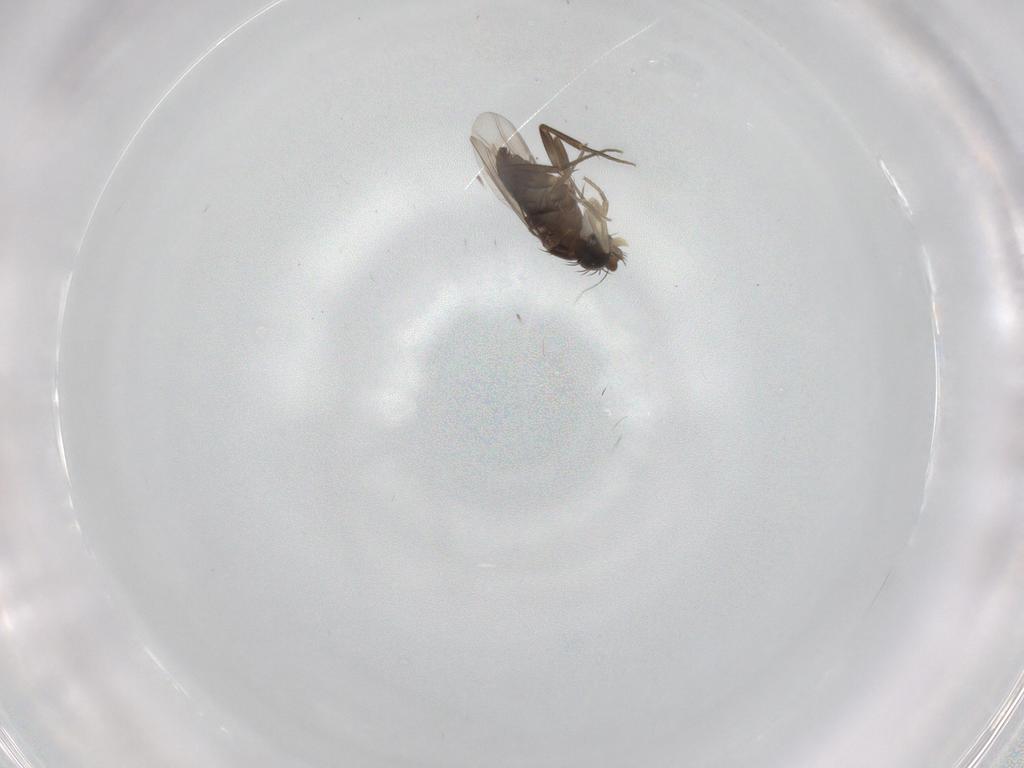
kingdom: Animalia
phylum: Arthropoda
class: Insecta
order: Diptera
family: Phoridae
